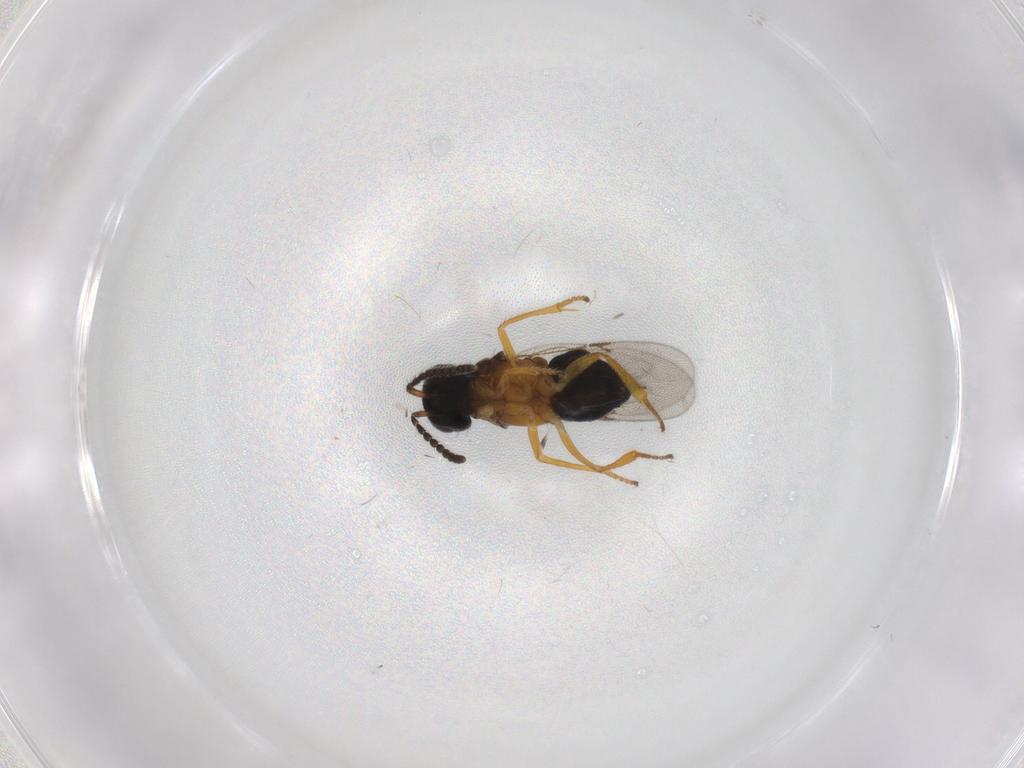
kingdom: Animalia
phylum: Arthropoda
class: Insecta
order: Hymenoptera
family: Encyrtidae
